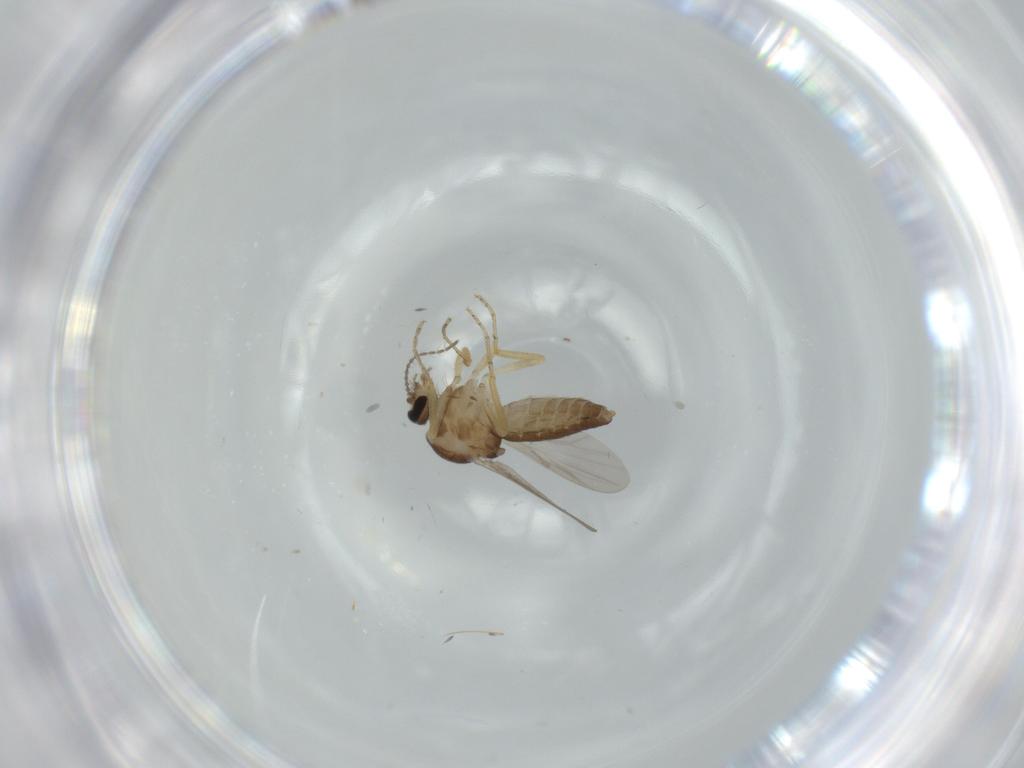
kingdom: Animalia
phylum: Arthropoda
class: Insecta
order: Diptera
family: Ceratopogonidae
